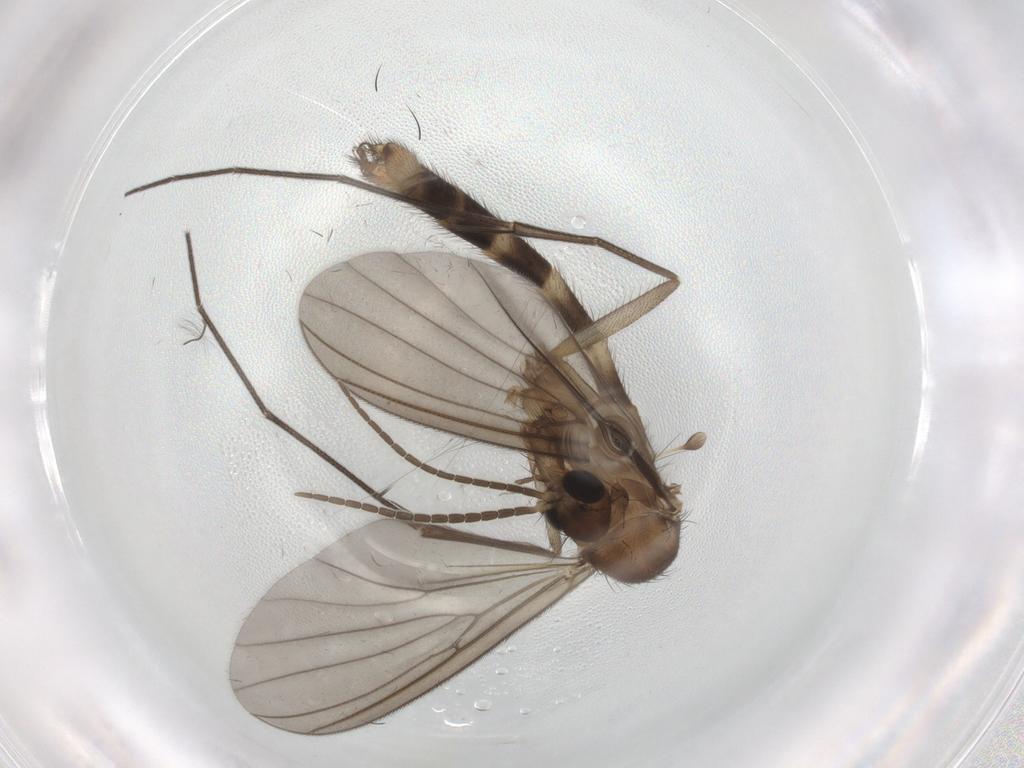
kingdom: Animalia
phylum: Arthropoda
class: Insecta
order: Diptera
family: Mycetophilidae
